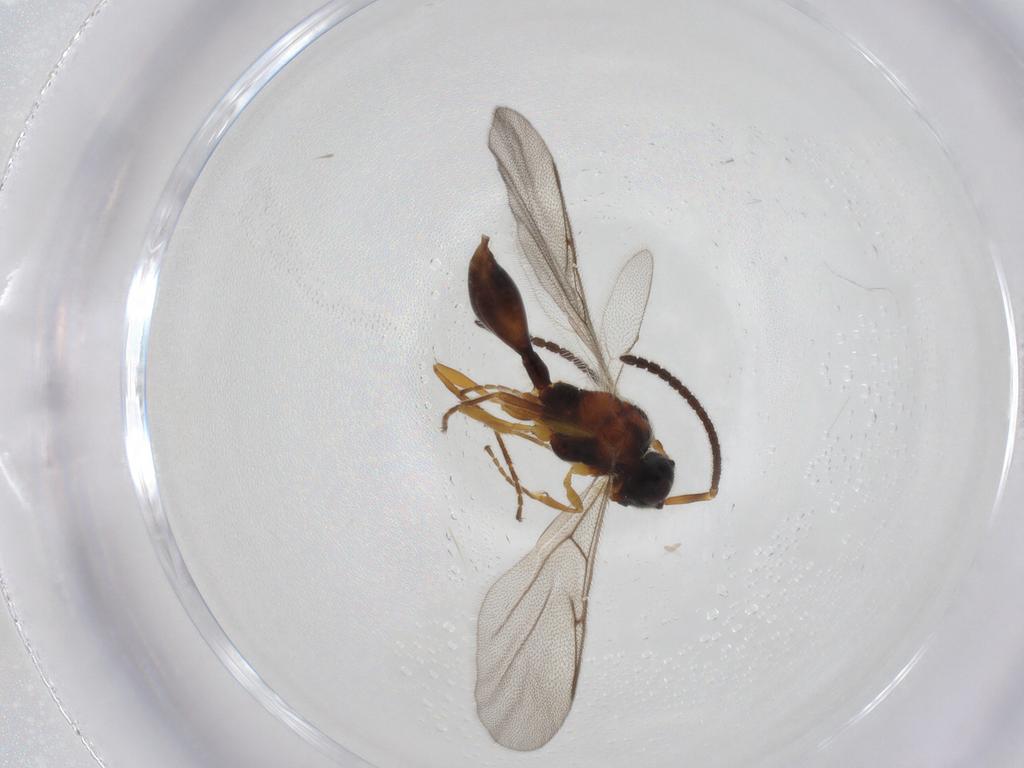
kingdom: Animalia
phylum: Arthropoda
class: Insecta
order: Hymenoptera
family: Diapriidae
